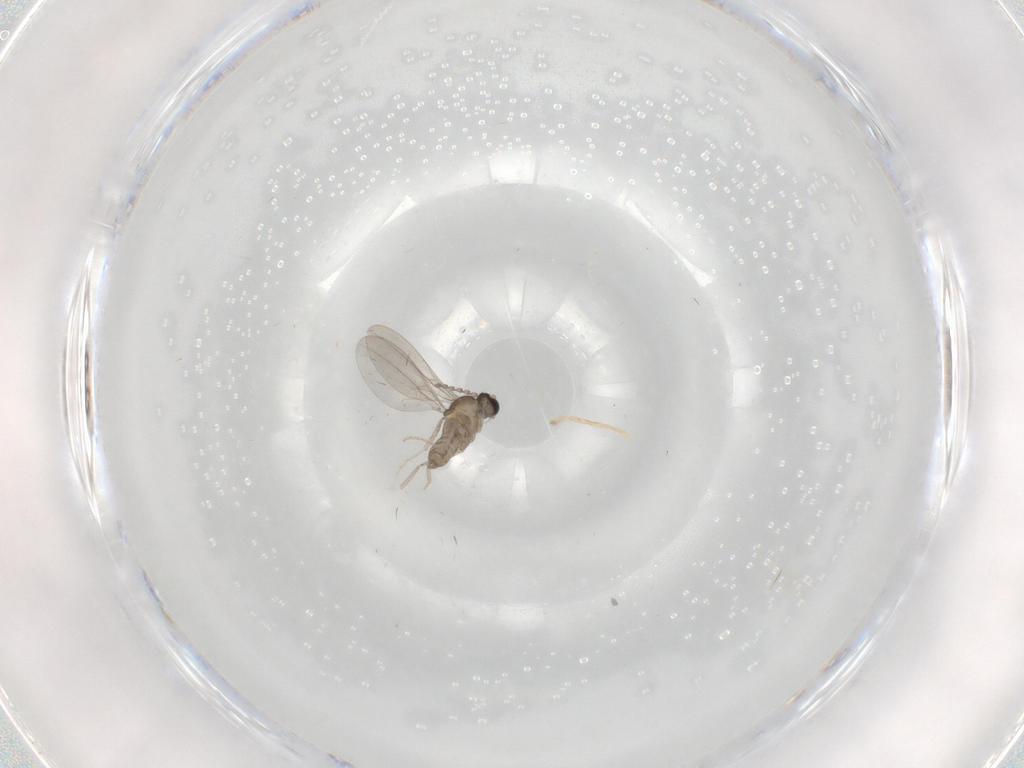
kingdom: Animalia
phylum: Arthropoda
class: Insecta
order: Diptera
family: Cecidomyiidae
